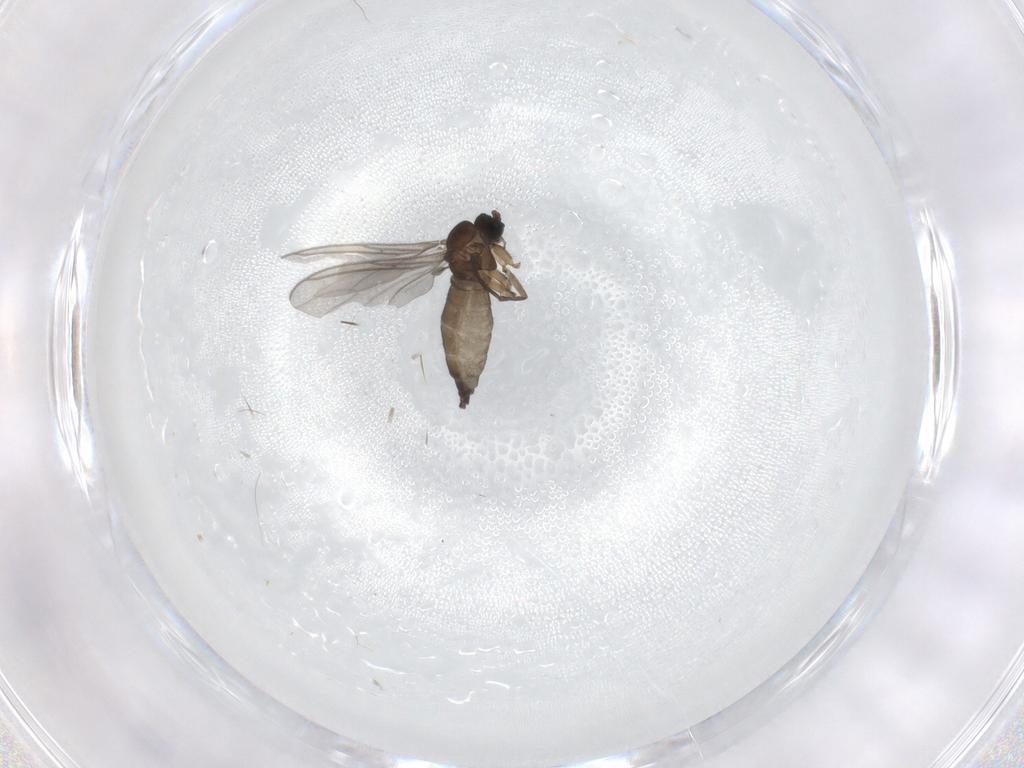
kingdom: Animalia
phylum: Arthropoda
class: Insecta
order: Diptera
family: Sciaridae
